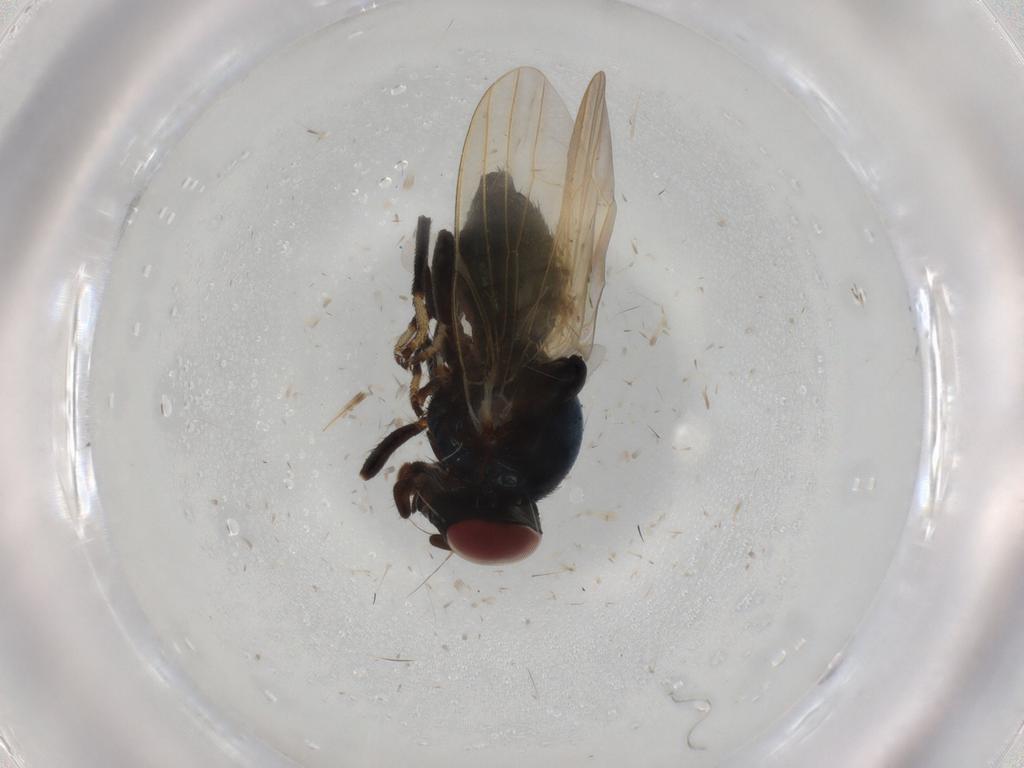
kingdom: Animalia
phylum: Arthropoda
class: Insecta
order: Diptera
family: Lonchaeidae
